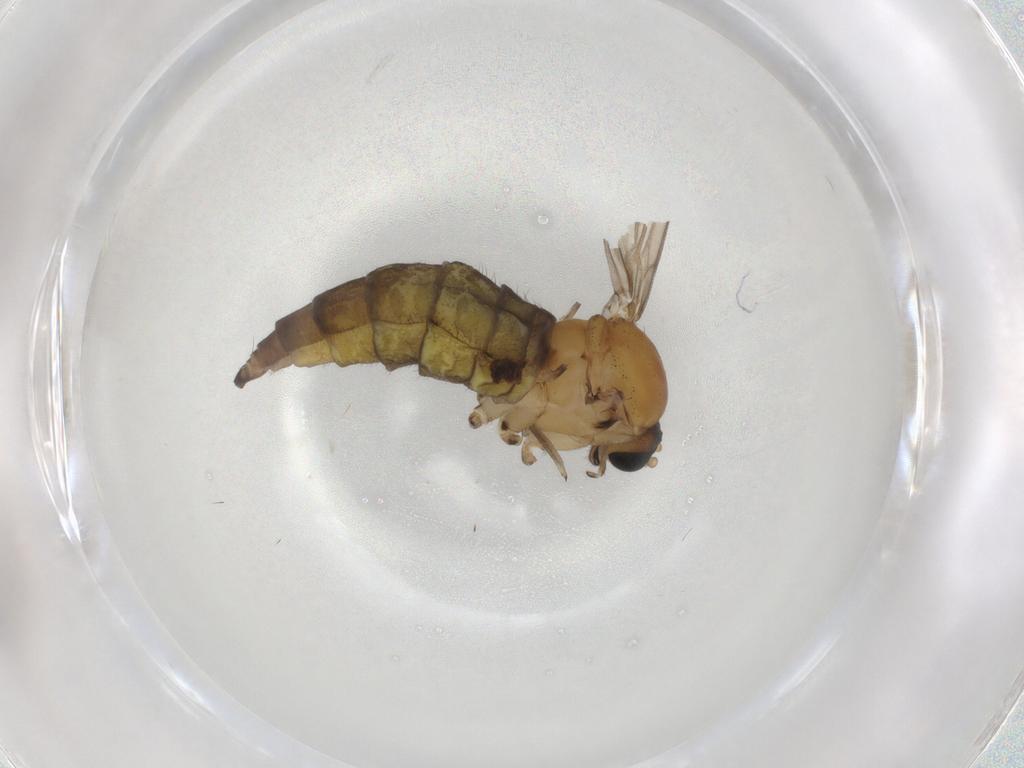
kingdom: Animalia
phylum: Arthropoda
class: Insecta
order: Diptera
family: Sciaridae
